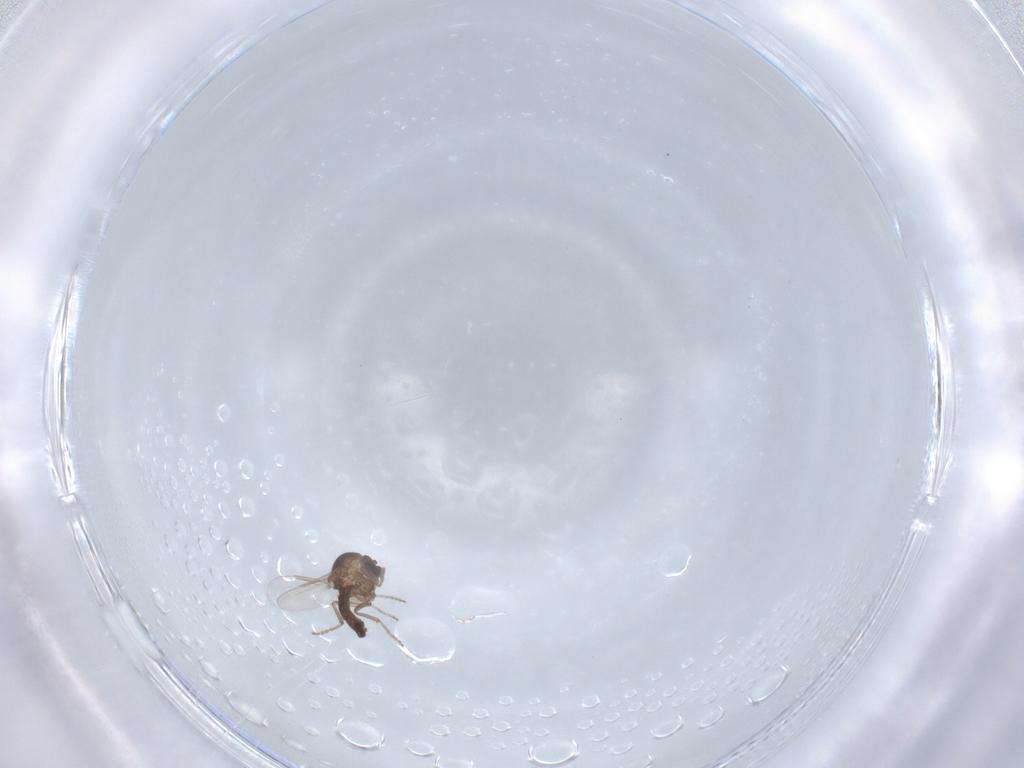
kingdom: Animalia
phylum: Arthropoda
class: Insecta
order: Diptera
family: Ceratopogonidae
